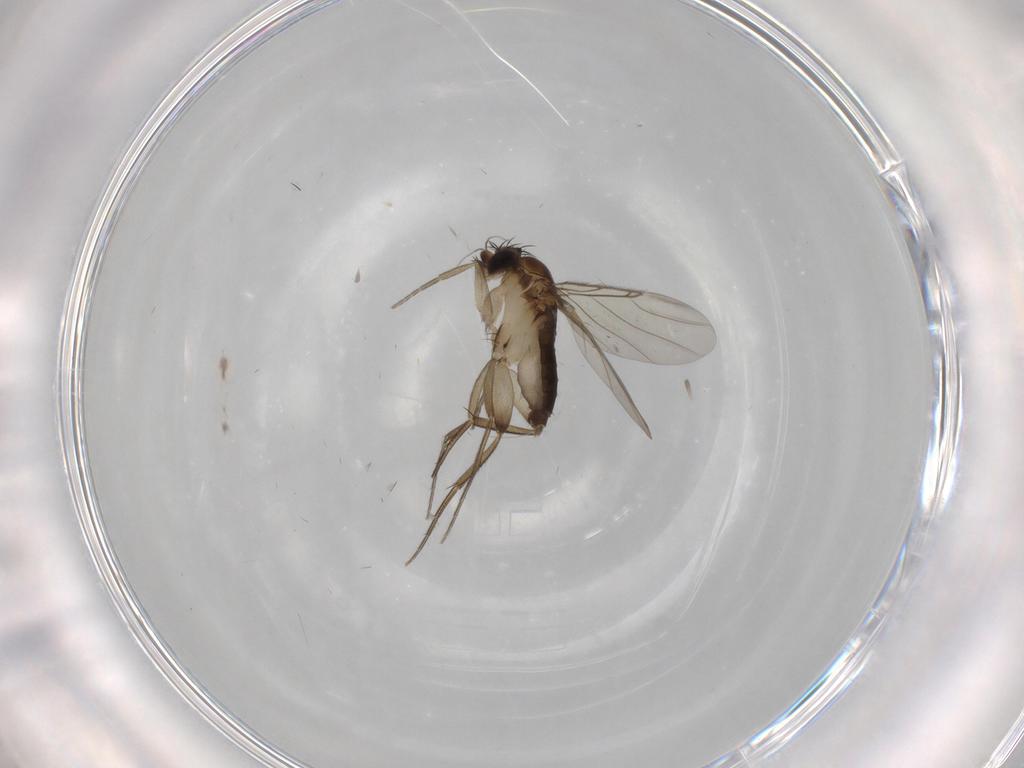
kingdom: Animalia
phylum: Arthropoda
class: Insecta
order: Diptera
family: Phoridae
